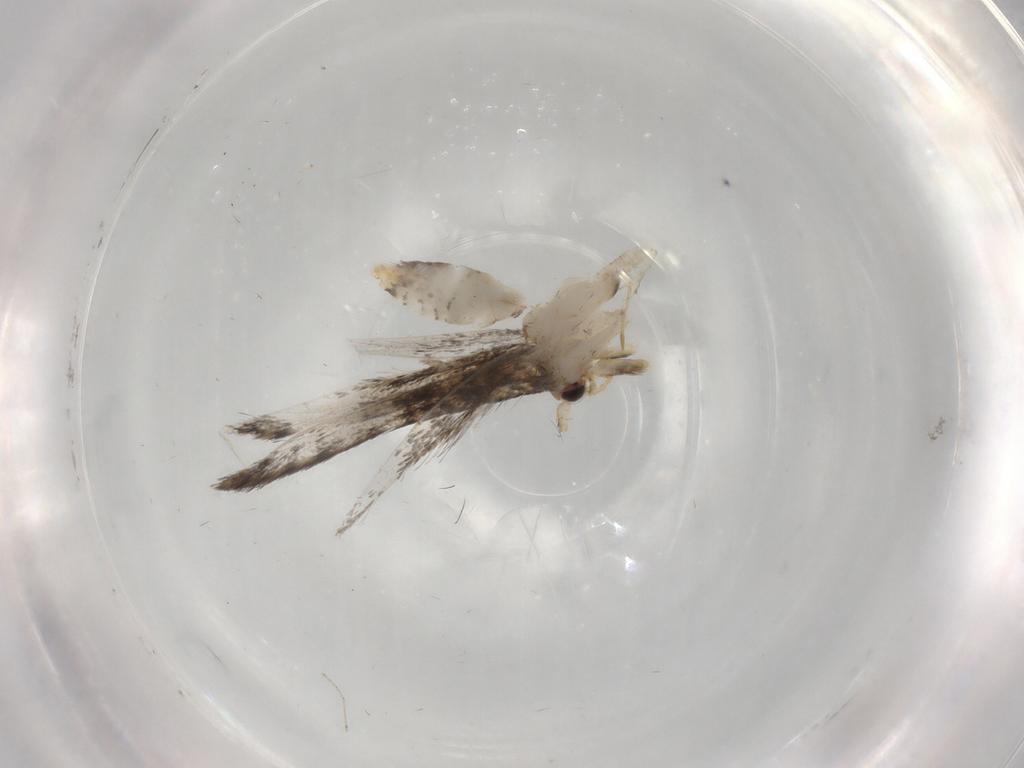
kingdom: Animalia
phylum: Arthropoda
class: Insecta
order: Lepidoptera
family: Tineidae
